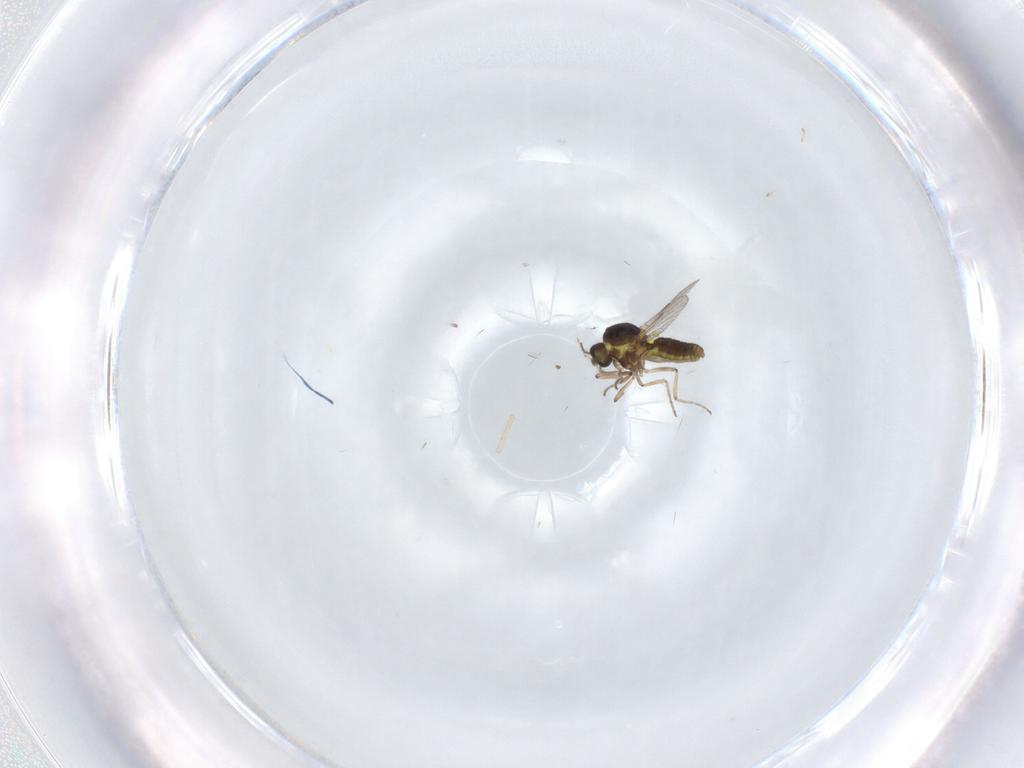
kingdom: Animalia
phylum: Arthropoda
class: Insecta
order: Diptera
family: Ceratopogonidae
